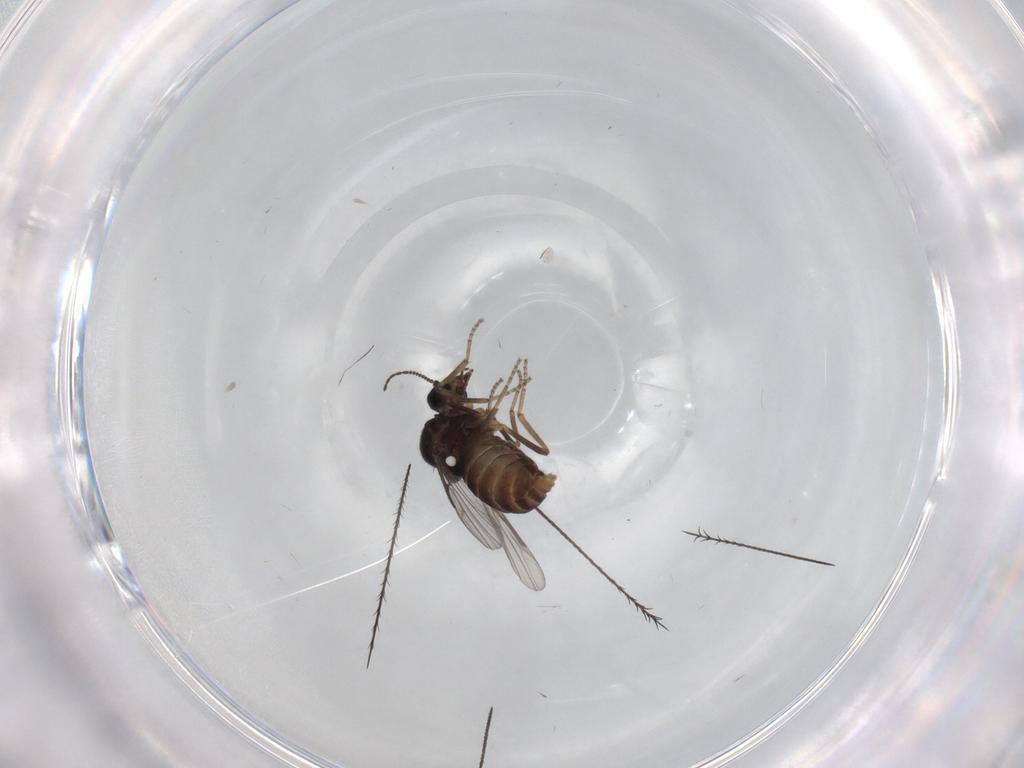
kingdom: Animalia
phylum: Arthropoda
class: Insecta
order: Diptera
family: Ceratopogonidae
